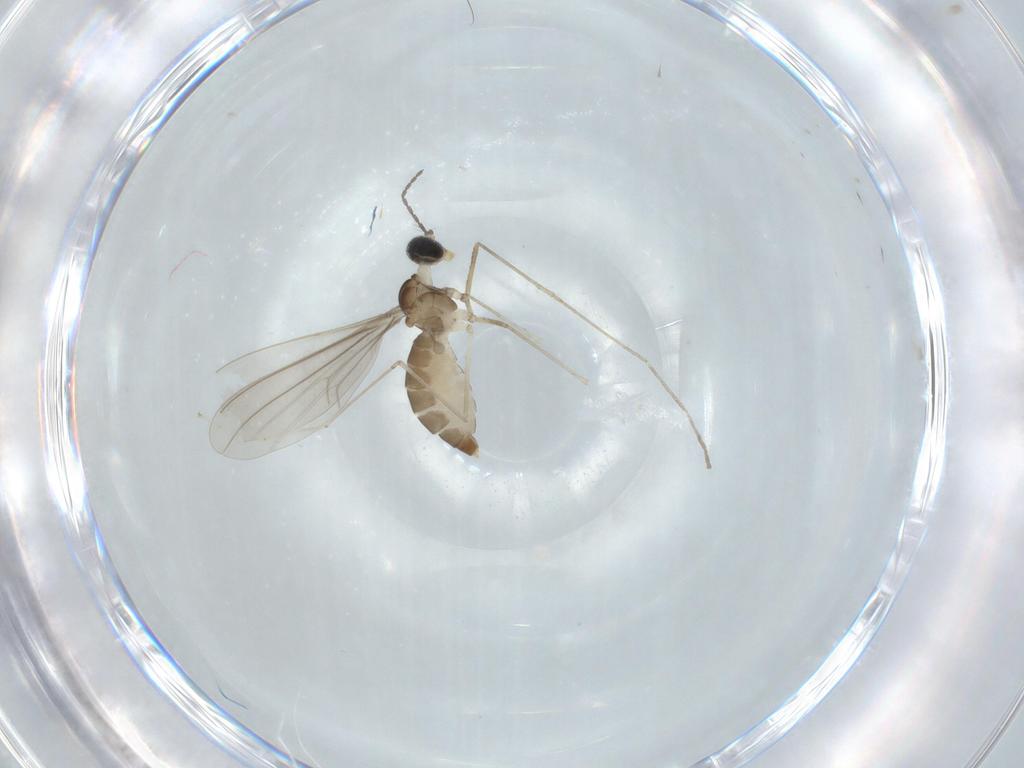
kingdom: Animalia
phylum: Arthropoda
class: Insecta
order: Diptera
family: Cecidomyiidae
